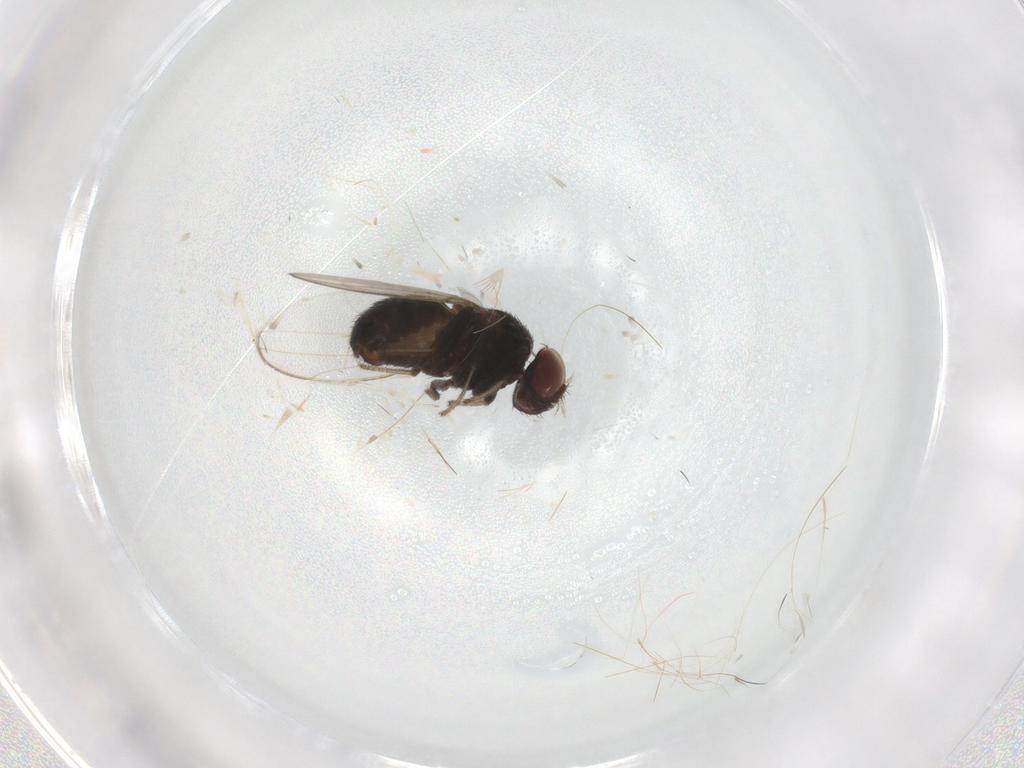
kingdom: Animalia
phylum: Arthropoda
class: Insecta
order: Diptera
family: Drosophilidae
